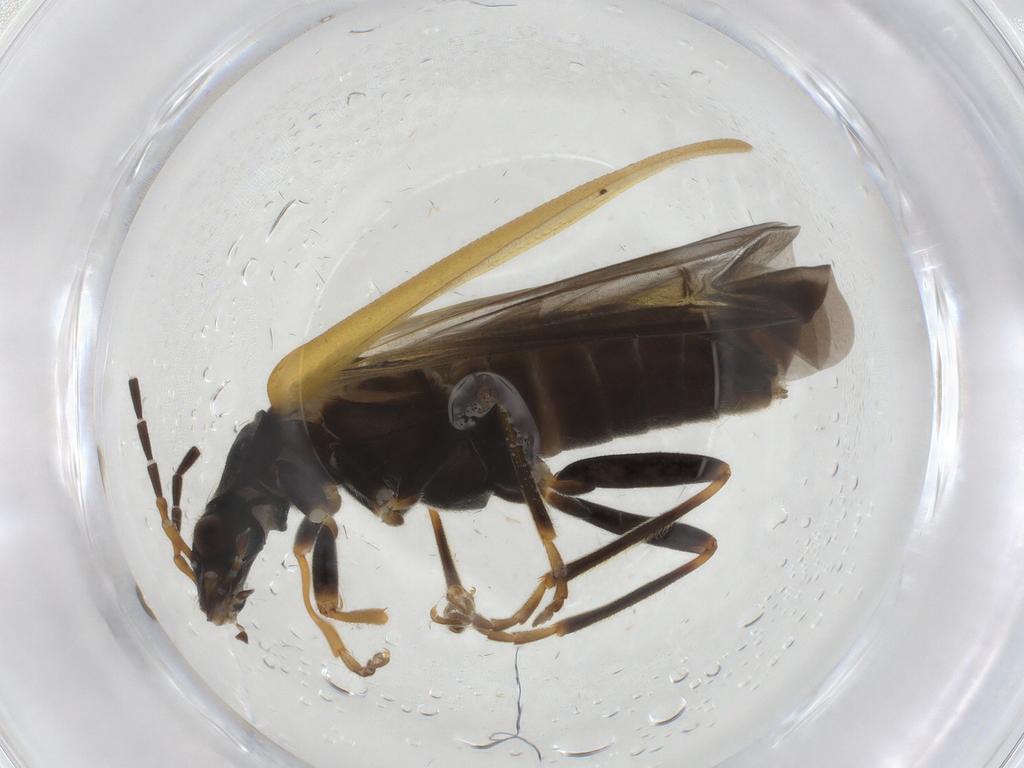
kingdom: Animalia
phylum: Arthropoda
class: Insecta
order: Coleoptera
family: Cantharidae
